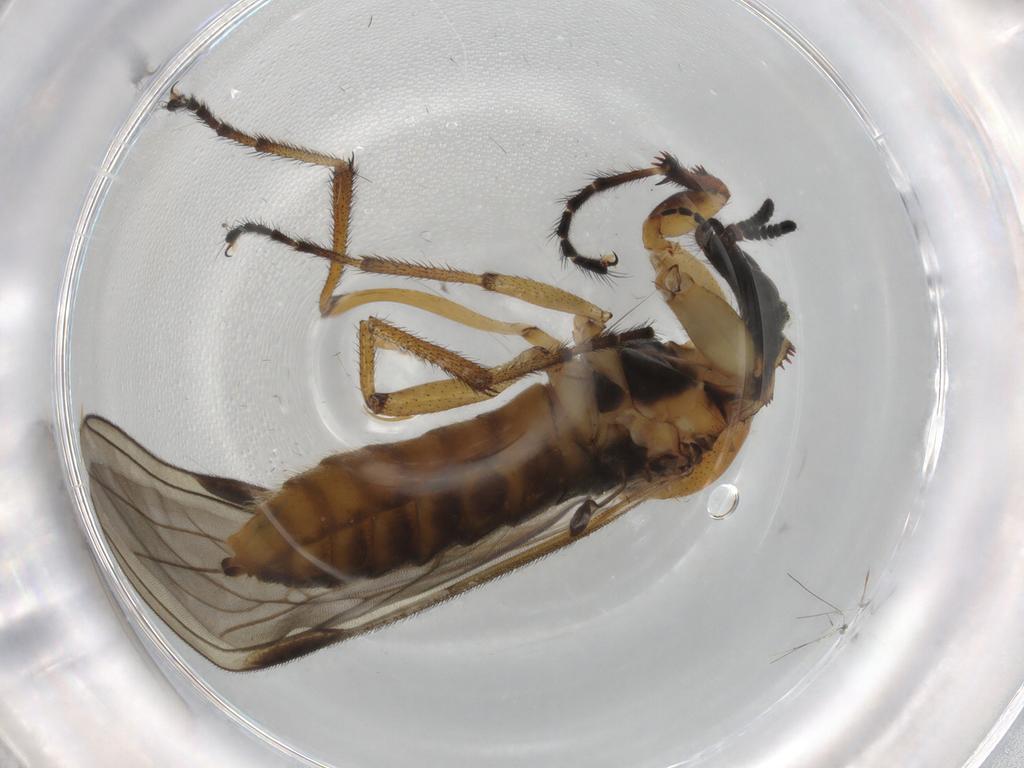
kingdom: Animalia
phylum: Arthropoda
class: Insecta
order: Diptera
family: Bibionidae
